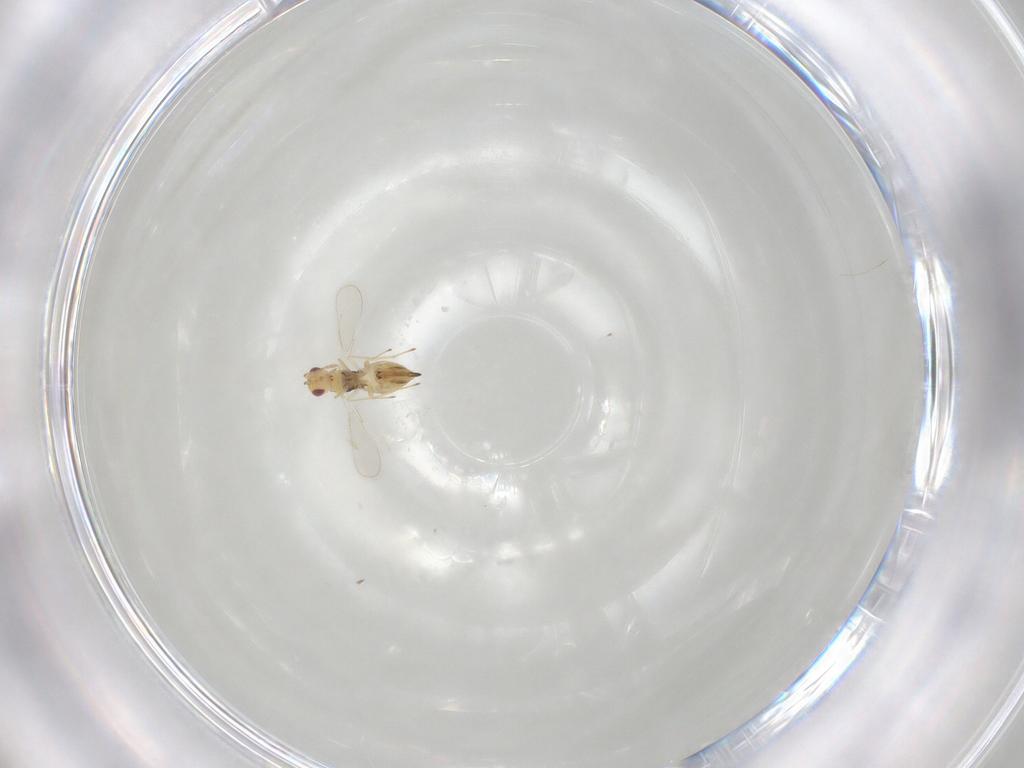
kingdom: Animalia
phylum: Arthropoda
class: Insecta
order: Hymenoptera
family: Eulophidae
